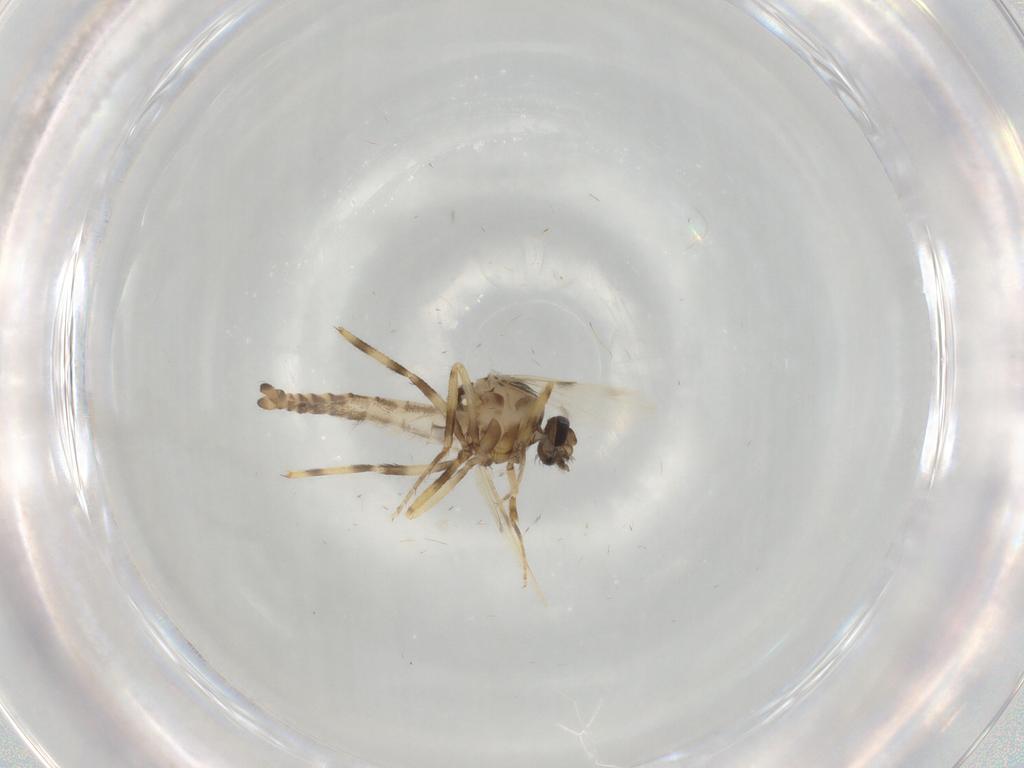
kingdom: Animalia
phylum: Arthropoda
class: Insecta
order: Diptera
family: Ceratopogonidae
